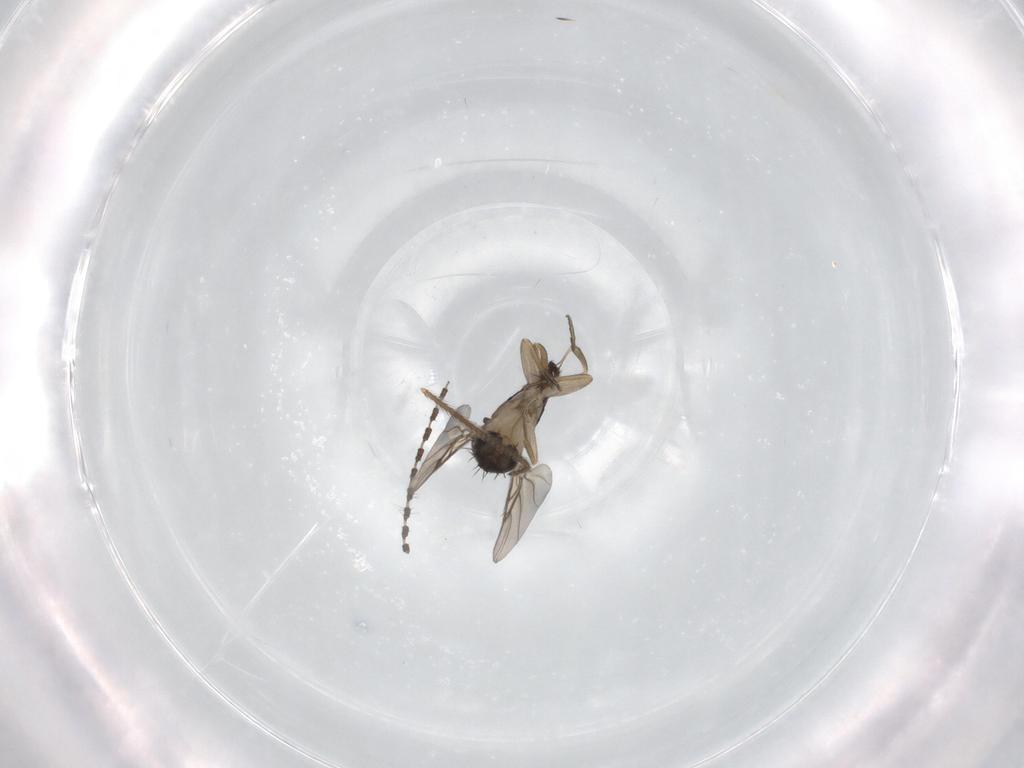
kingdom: Animalia
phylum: Arthropoda
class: Insecta
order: Diptera
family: Sciaridae
